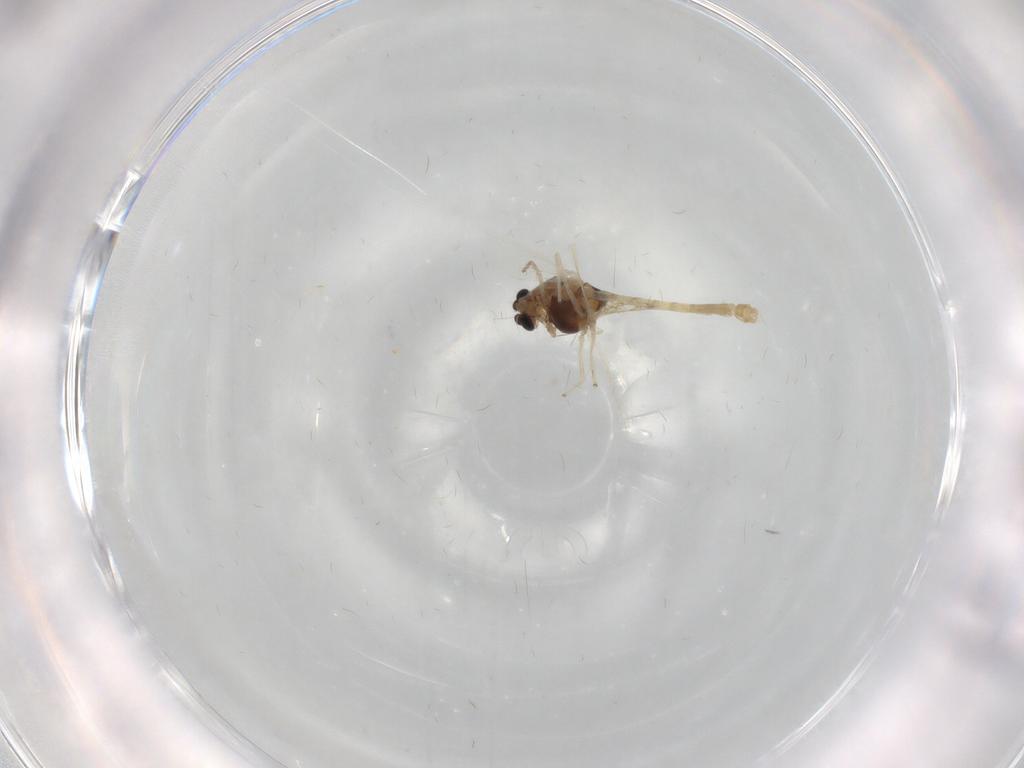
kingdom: Animalia
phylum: Arthropoda
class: Insecta
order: Diptera
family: Chironomidae
